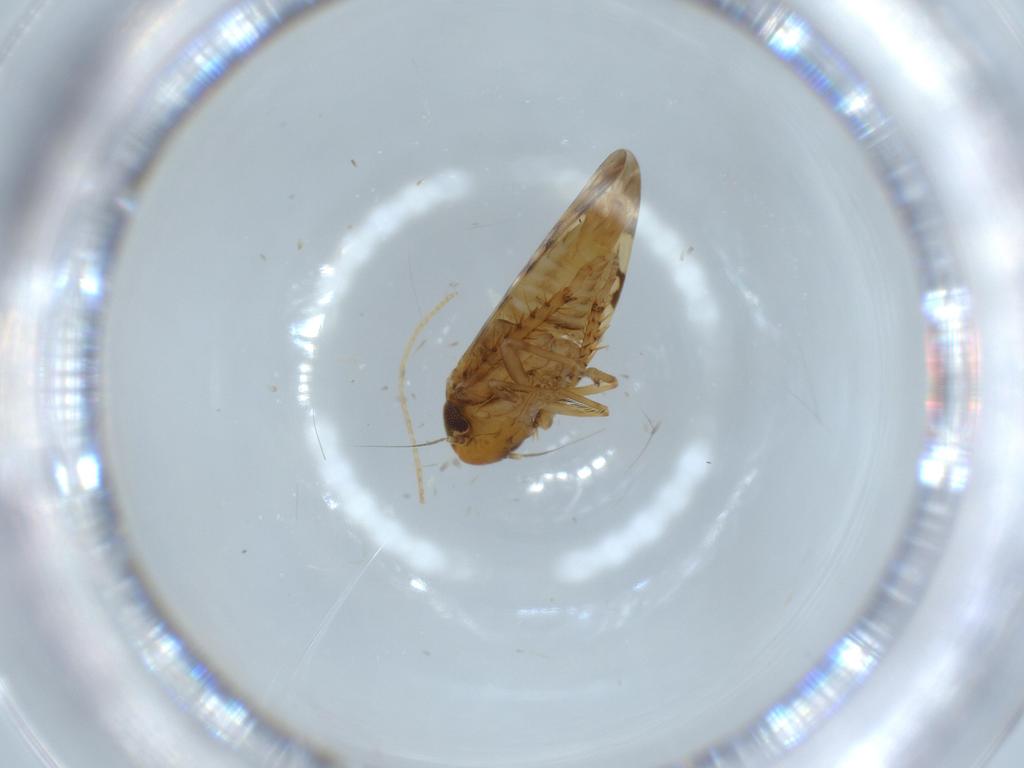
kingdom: Animalia
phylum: Arthropoda
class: Insecta
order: Hemiptera
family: Cicadellidae
